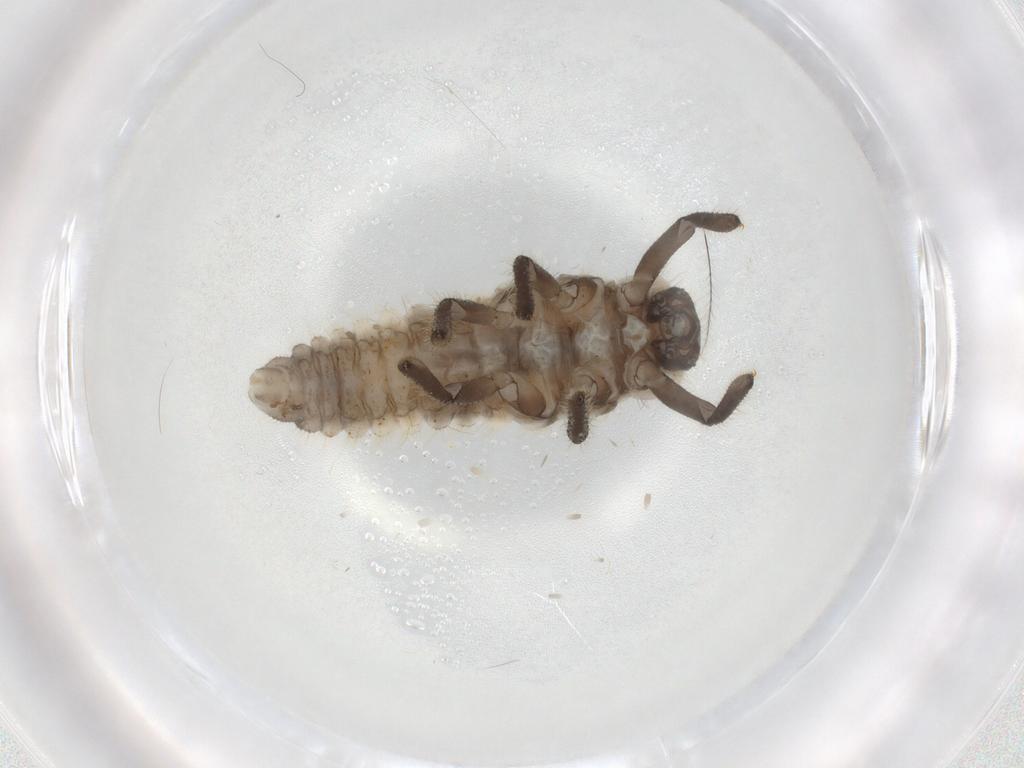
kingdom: Animalia
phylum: Arthropoda
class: Insecta
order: Coleoptera
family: Coccinellidae
